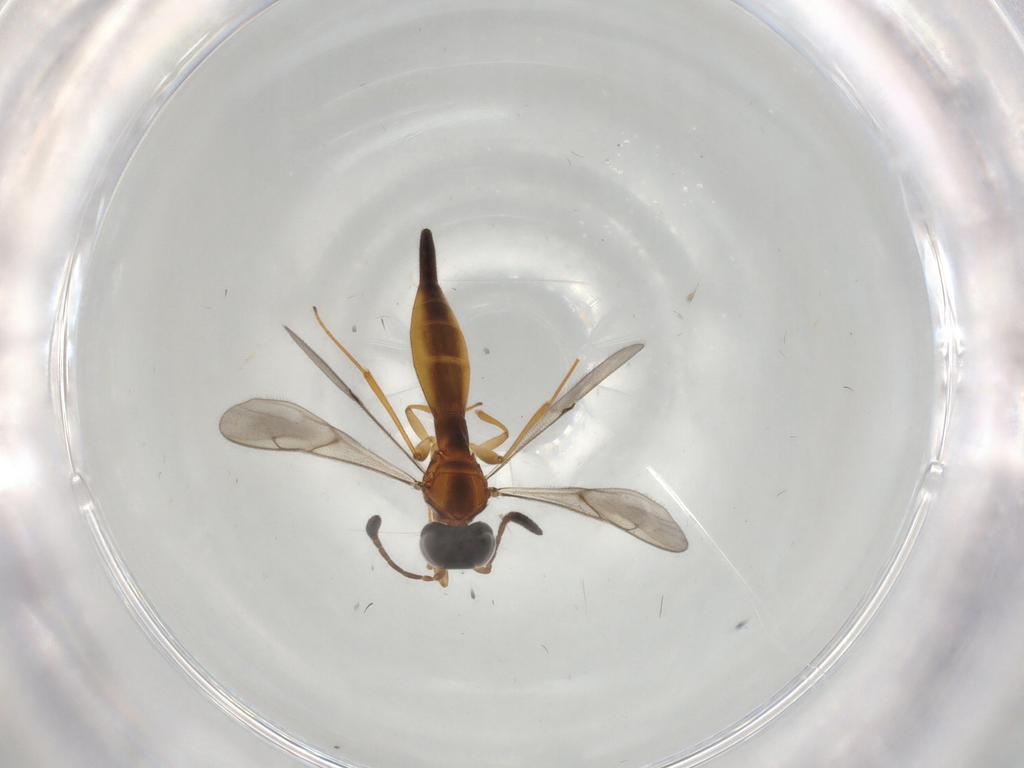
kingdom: Animalia
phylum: Arthropoda
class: Insecta
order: Hymenoptera
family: Scelionidae
